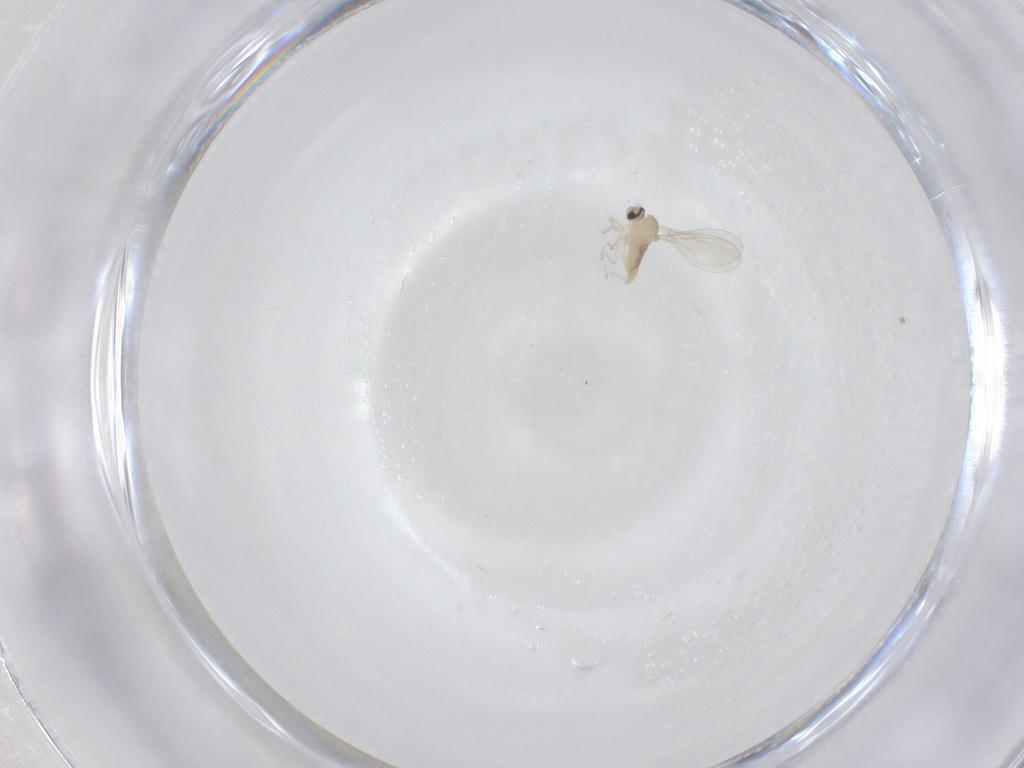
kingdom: Animalia
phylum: Arthropoda
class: Insecta
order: Diptera
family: Cecidomyiidae
